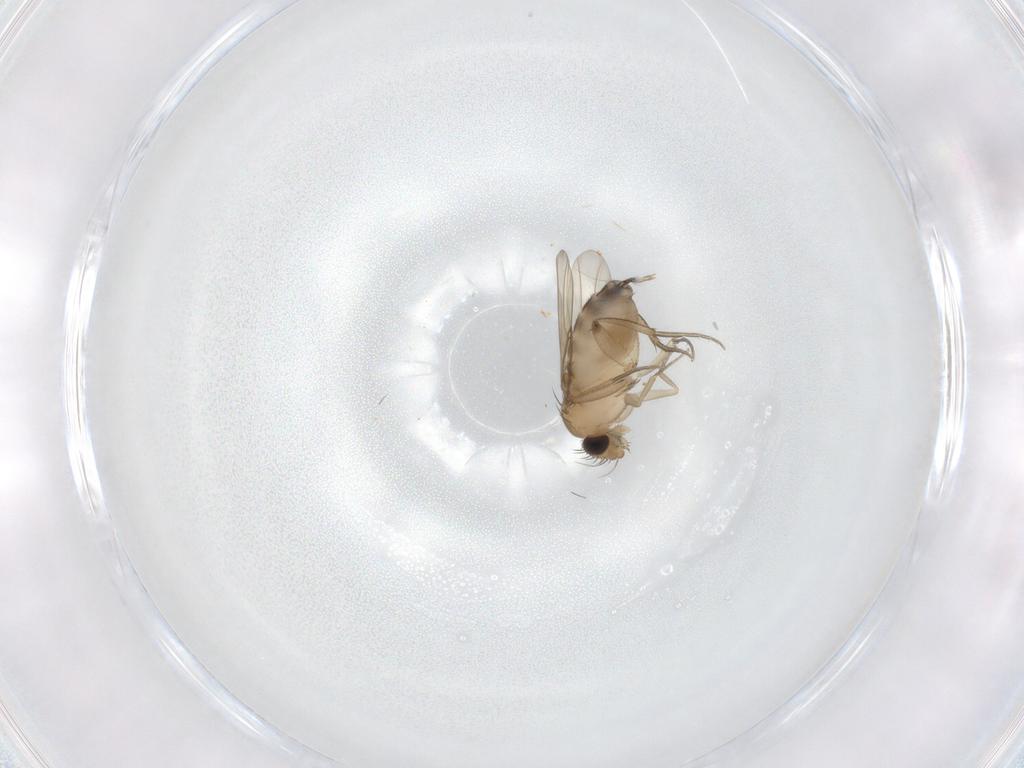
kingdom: Animalia
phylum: Arthropoda
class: Insecta
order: Diptera
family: Phoridae
